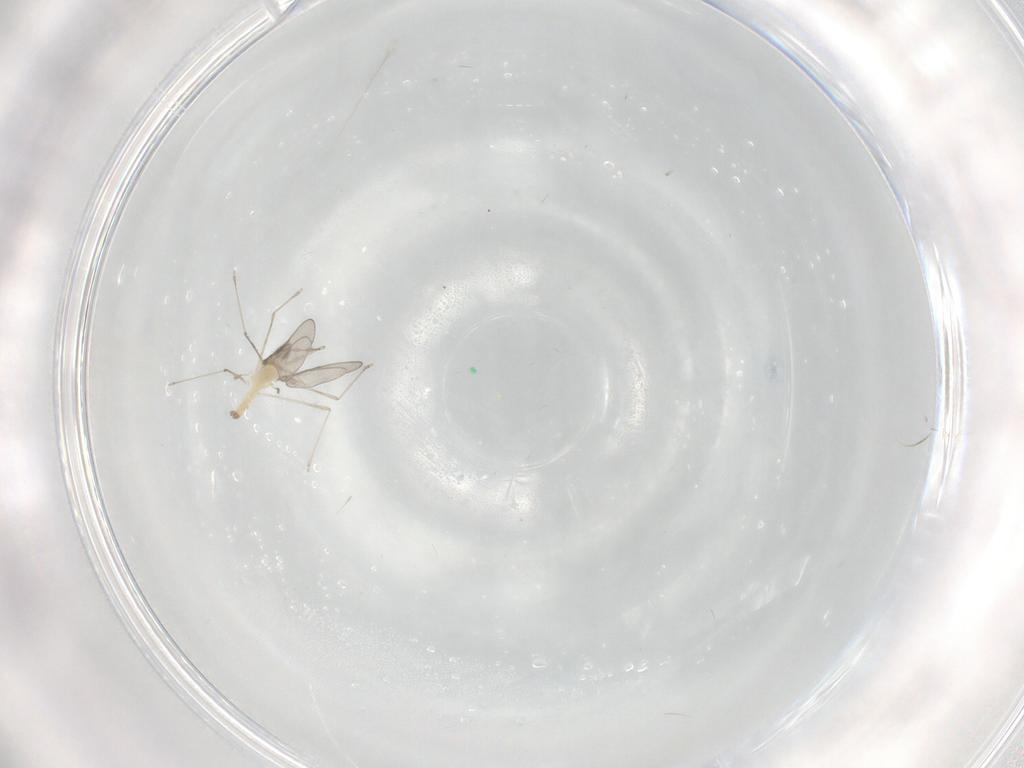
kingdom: Animalia
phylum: Arthropoda
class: Insecta
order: Diptera
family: Cecidomyiidae
